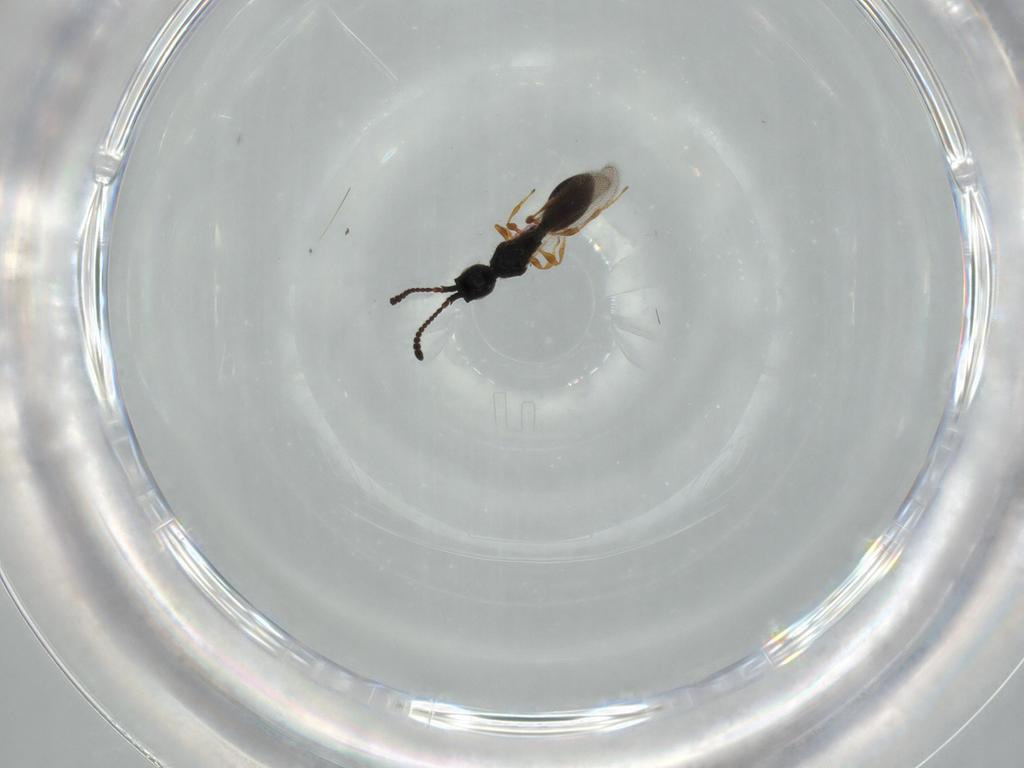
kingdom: Animalia
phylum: Arthropoda
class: Insecta
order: Hymenoptera
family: Diapriidae
